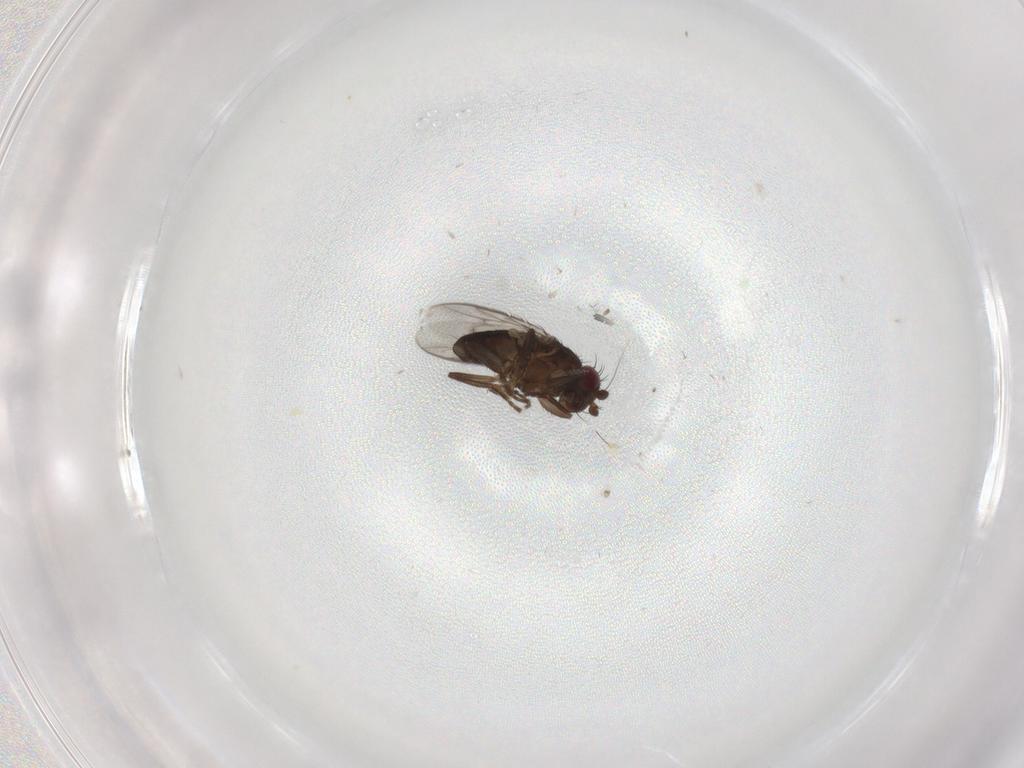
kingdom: Animalia
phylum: Arthropoda
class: Insecta
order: Diptera
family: Sphaeroceridae
